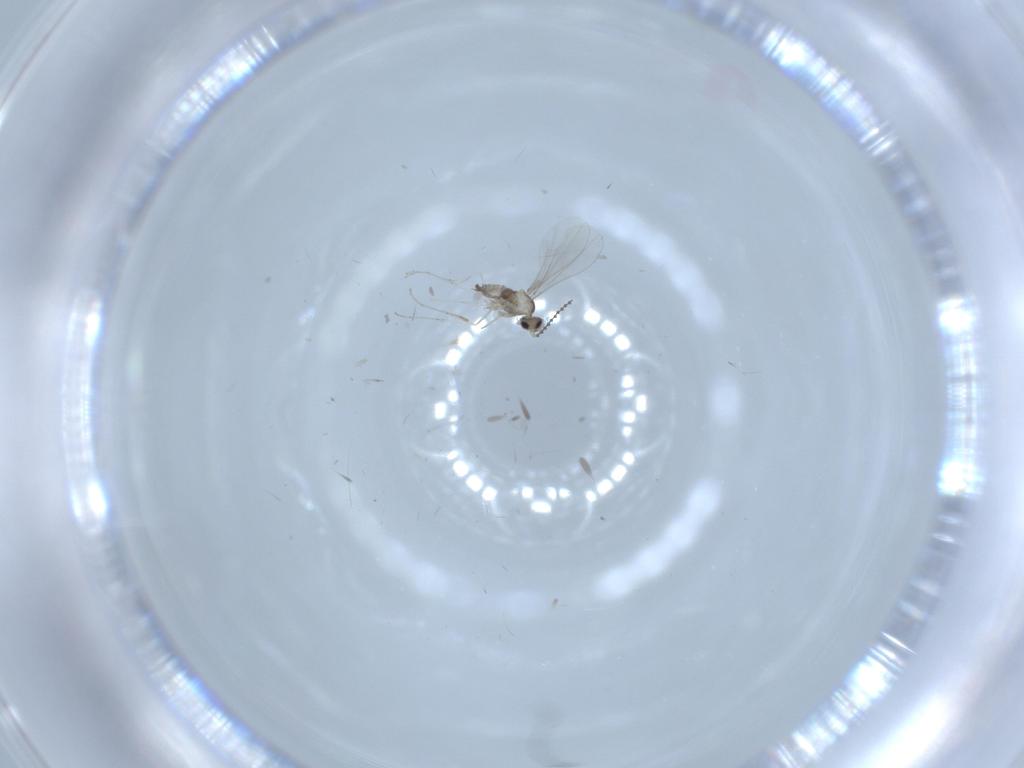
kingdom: Animalia
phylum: Arthropoda
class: Insecta
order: Diptera
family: Cecidomyiidae
